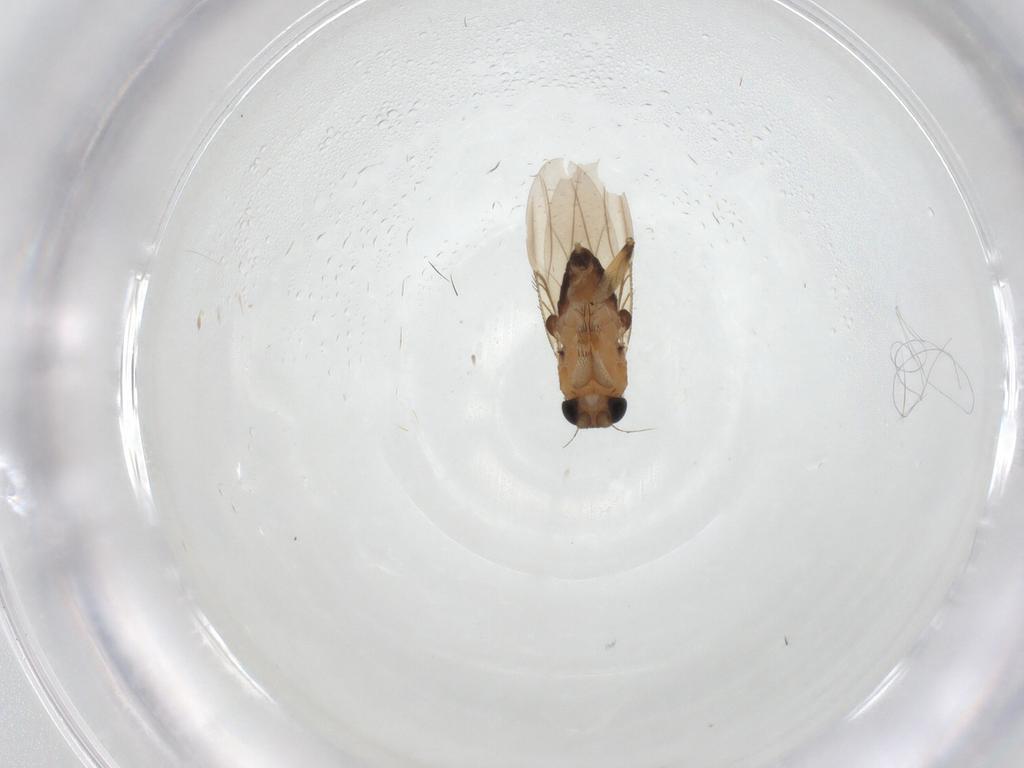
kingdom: Animalia
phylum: Arthropoda
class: Insecta
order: Diptera
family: Phoridae
